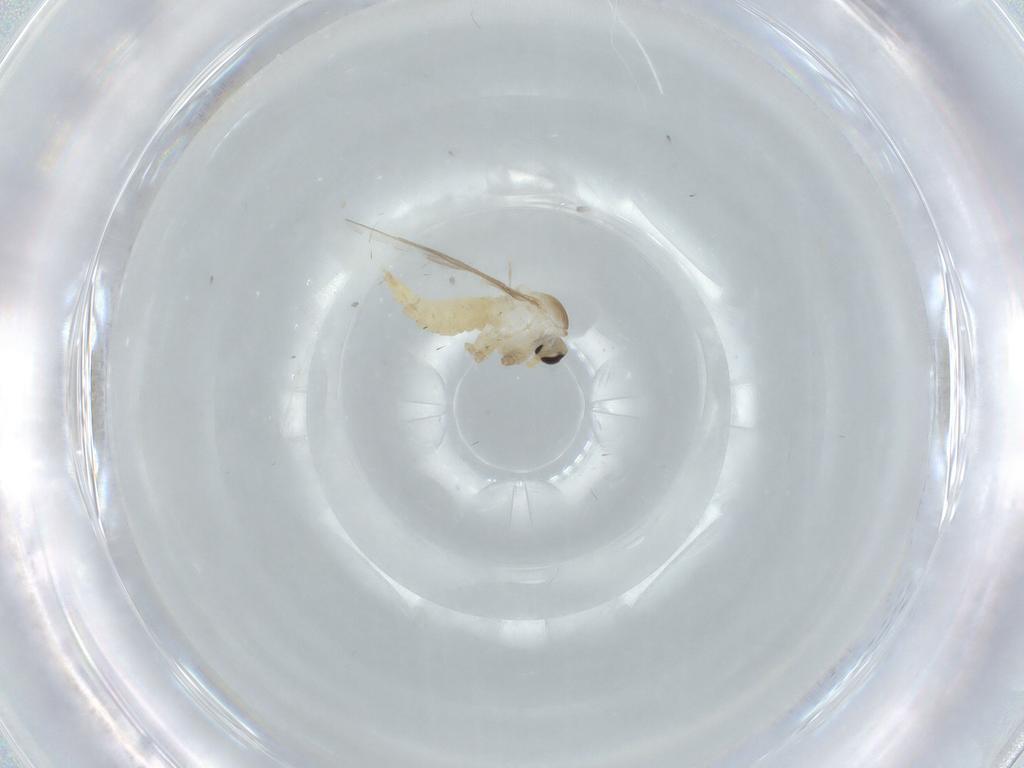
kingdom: Animalia
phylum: Arthropoda
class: Insecta
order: Diptera
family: Cecidomyiidae
